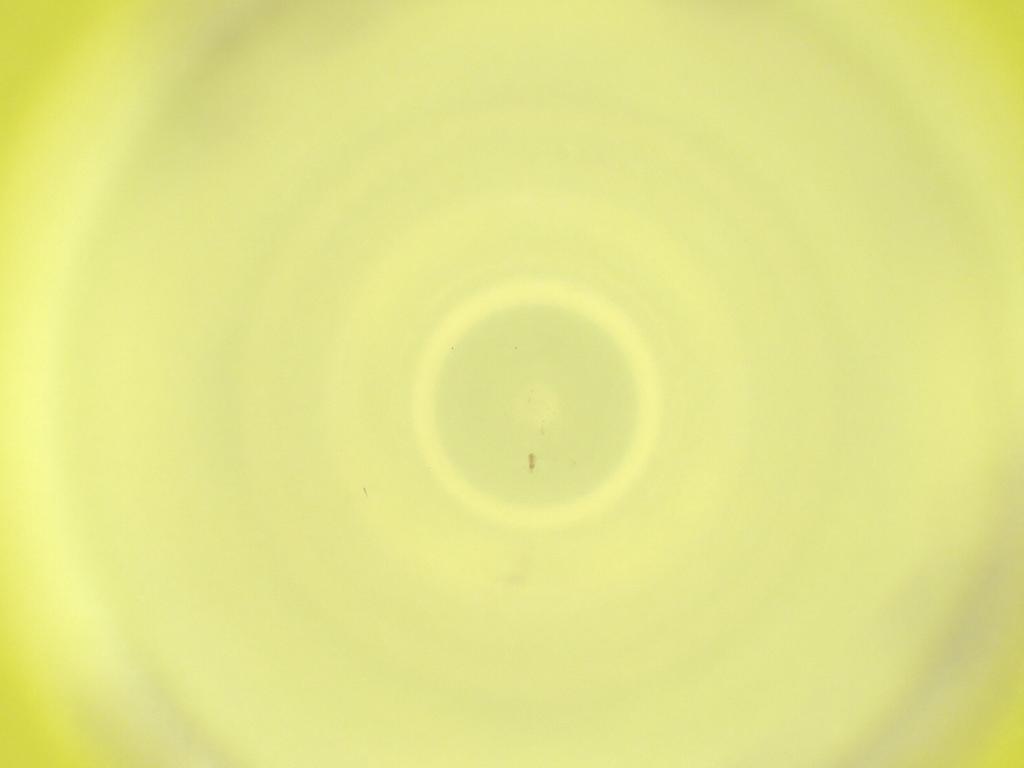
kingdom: Animalia
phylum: Arthropoda
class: Insecta
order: Diptera
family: Cecidomyiidae
